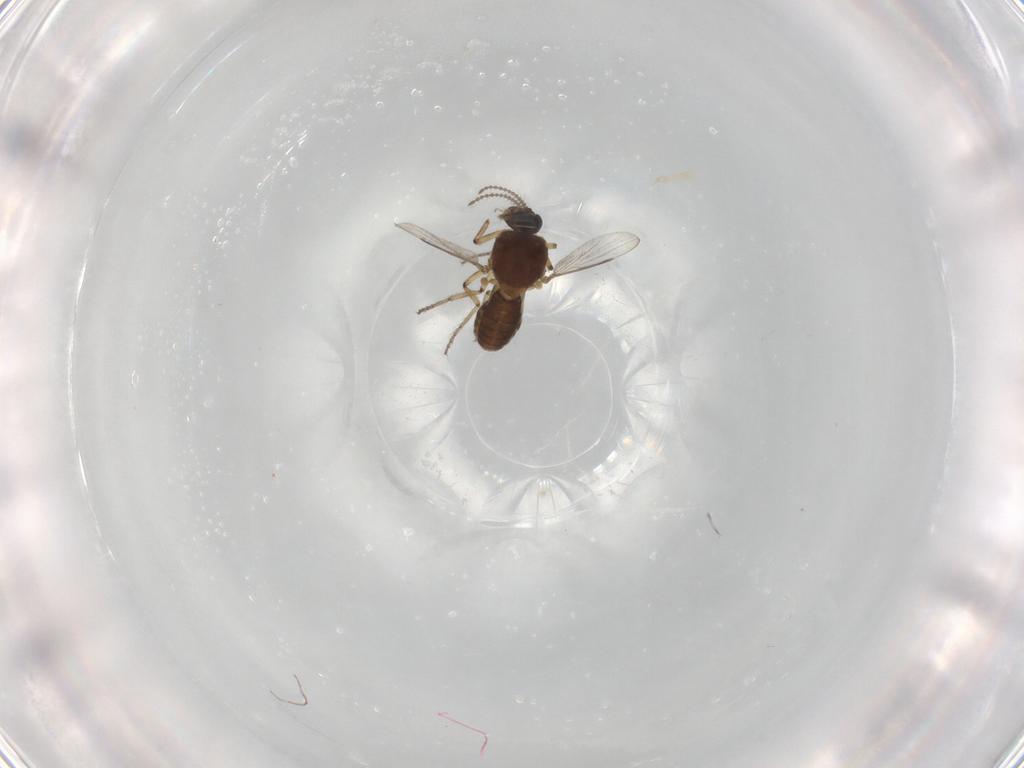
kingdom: Animalia
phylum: Arthropoda
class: Insecta
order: Diptera
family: Ceratopogonidae
